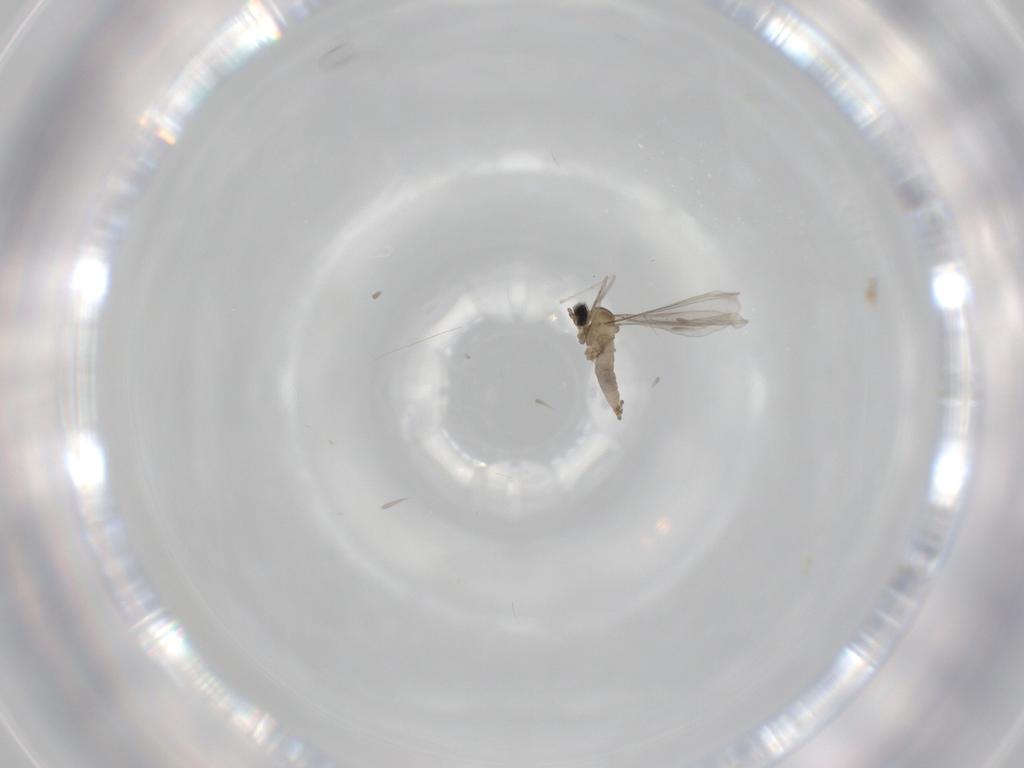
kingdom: Animalia
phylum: Arthropoda
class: Insecta
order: Diptera
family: Cecidomyiidae
